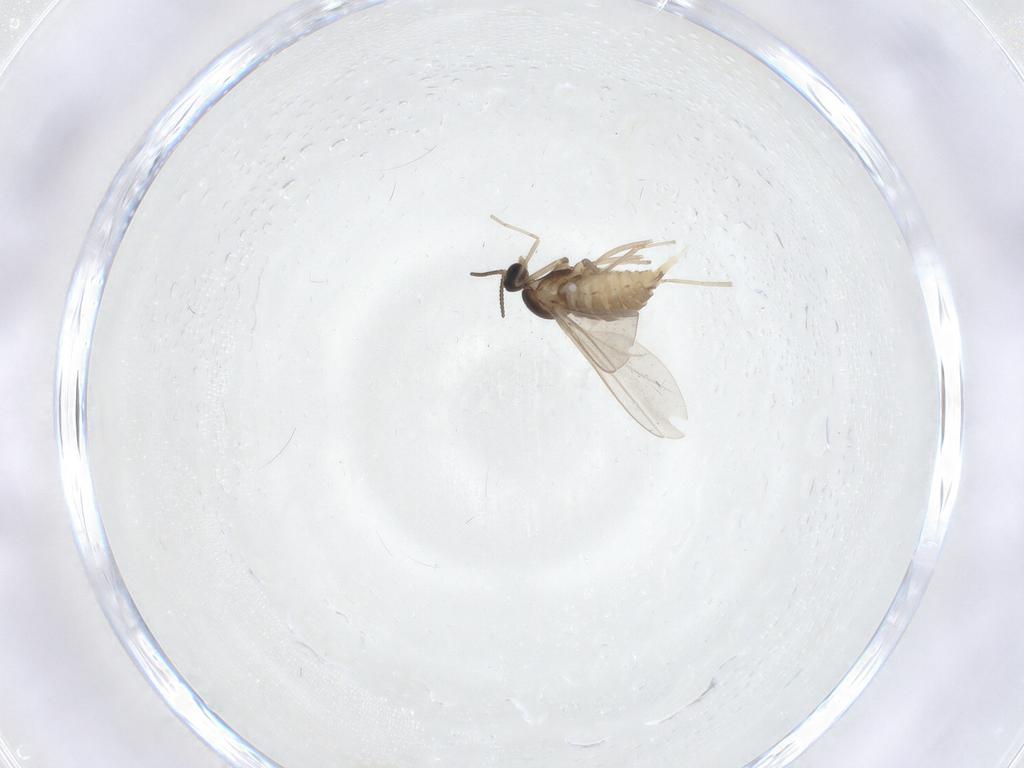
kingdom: Animalia
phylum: Arthropoda
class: Insecta
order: Diptera
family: Cecidomyiidae
